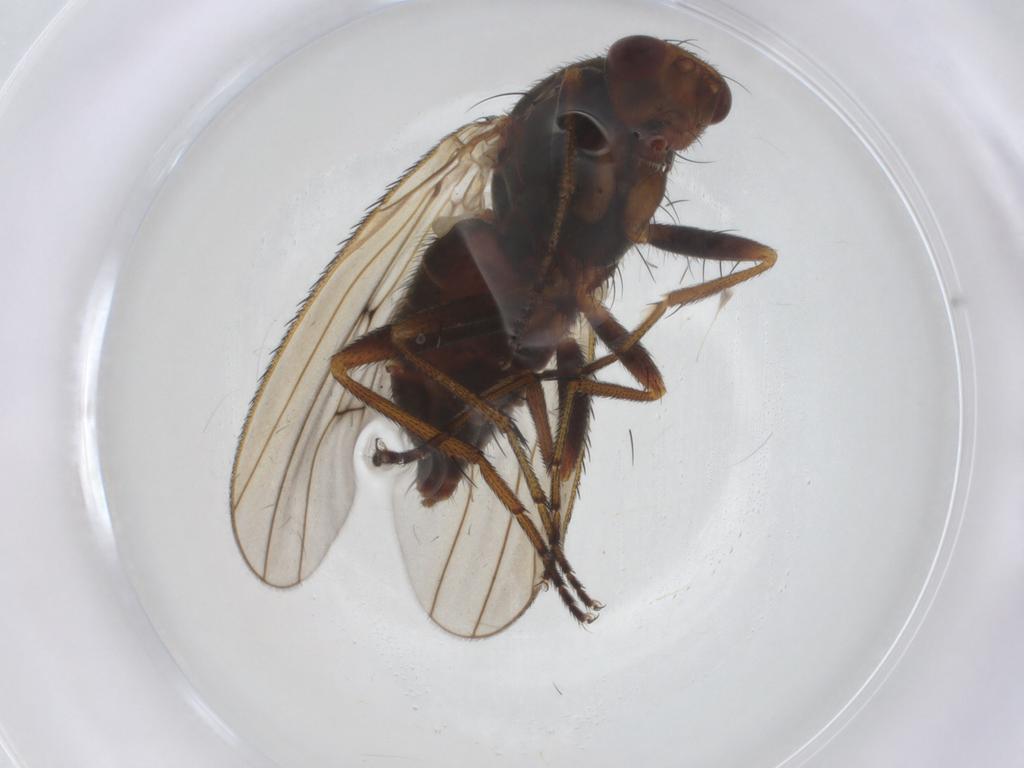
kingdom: Animalia
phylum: Arthropoda
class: Insecta
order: Diptera
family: Heleomyzidae
